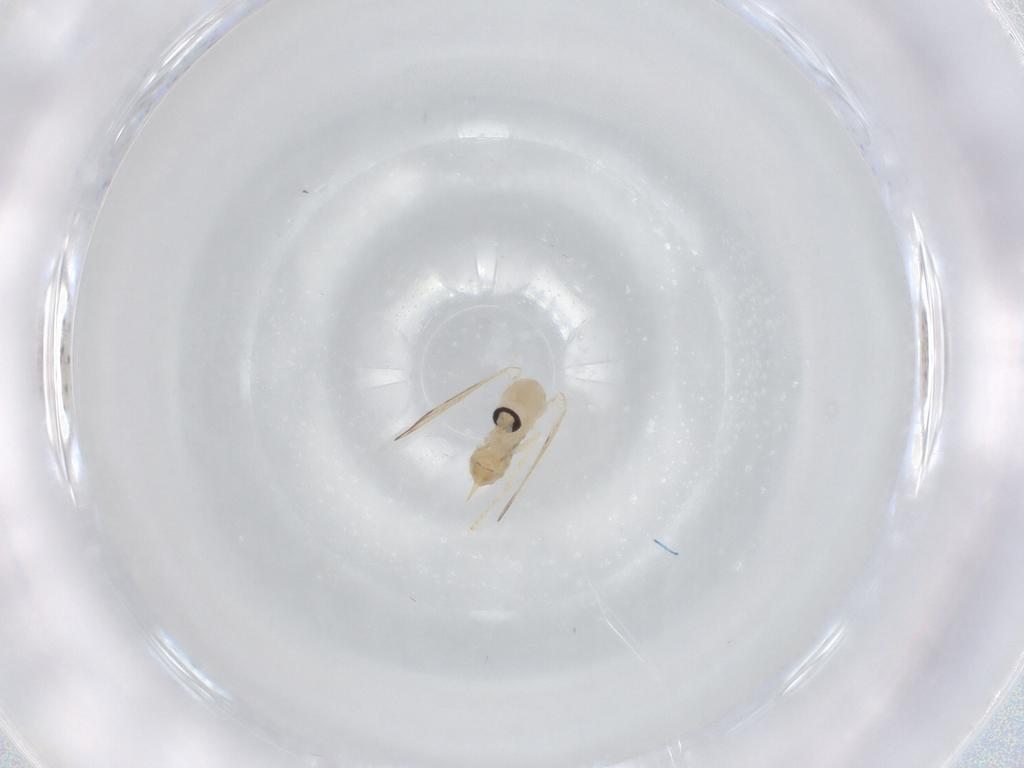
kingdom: Animalia
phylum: Arthropoda
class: Insecta
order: Diptera
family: Psychodidae
